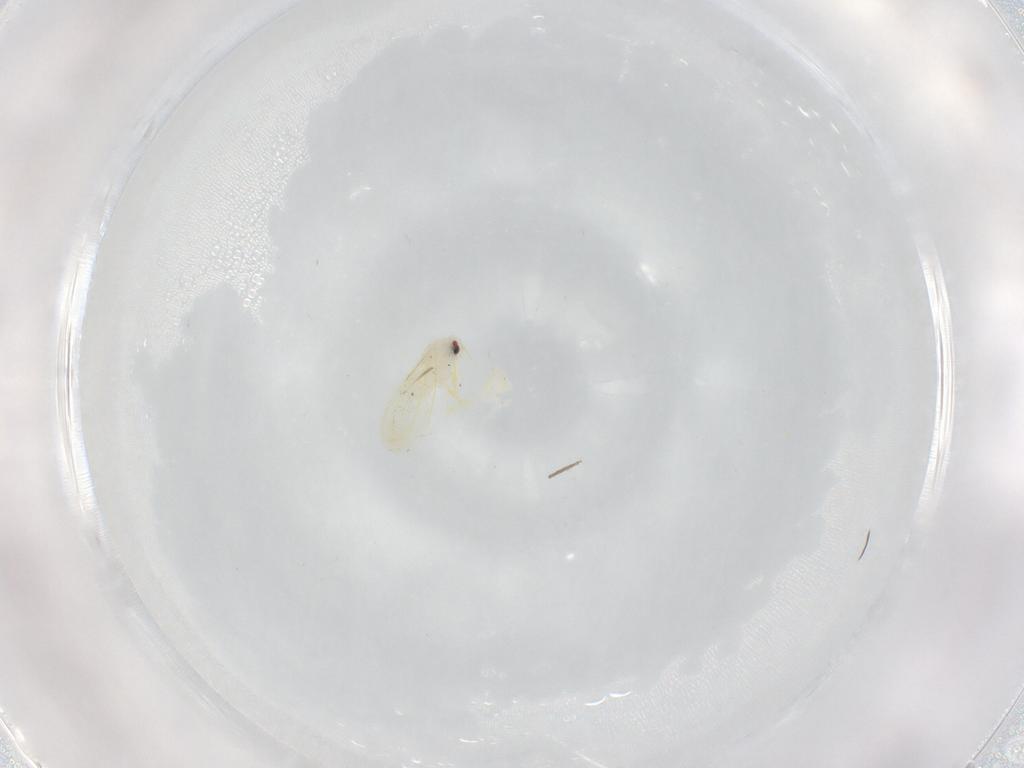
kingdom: Animalia
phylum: Arthropoda
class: Insecta
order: Hemiptera
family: Aleyrodidae
